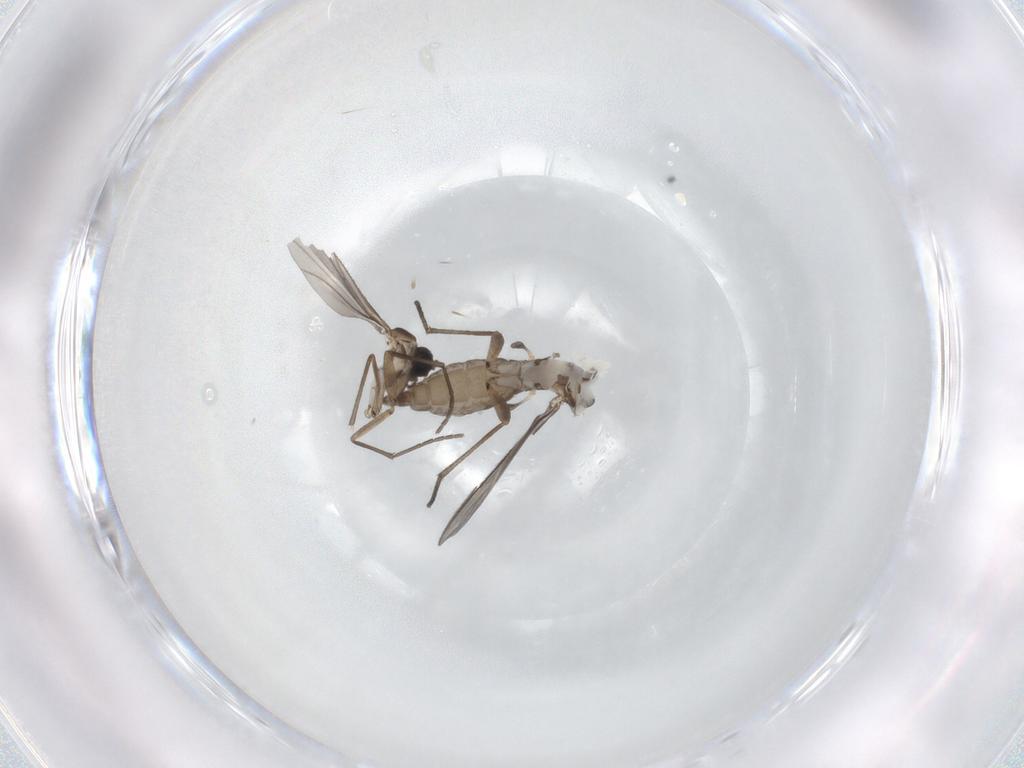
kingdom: Animalia
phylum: Arthropoda
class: Insecta
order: Diptera
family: Sciaridae
